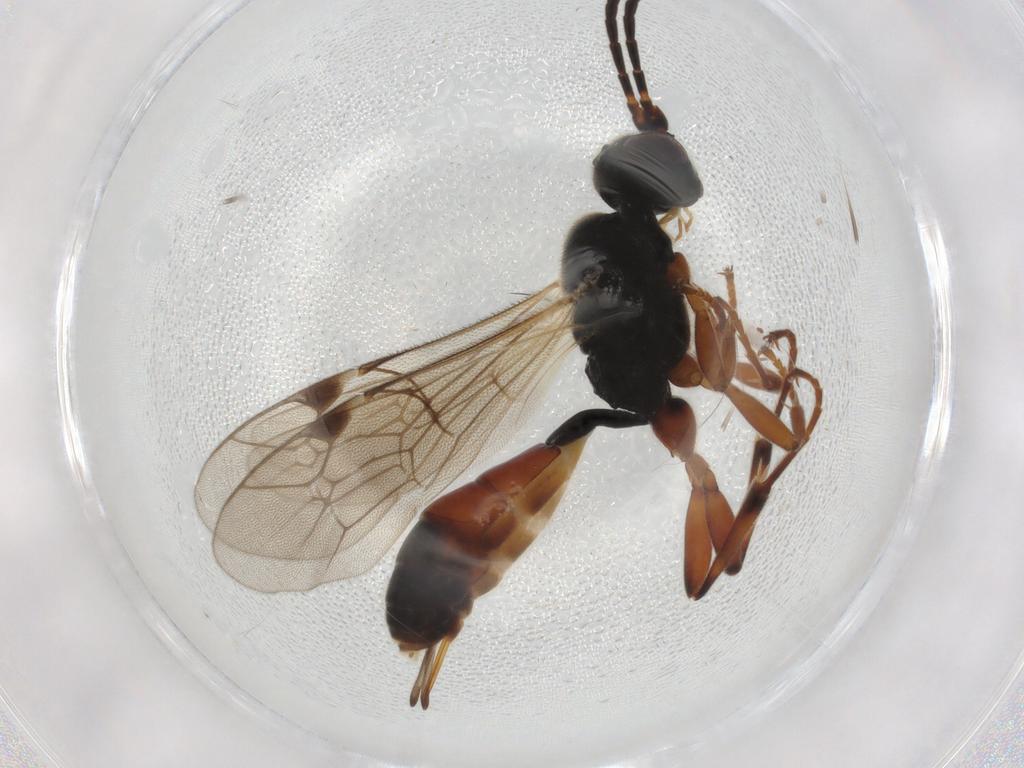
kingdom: Animalia
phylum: Arthropoda
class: Insecta
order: Hymenoptera
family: Ichneumonidae
